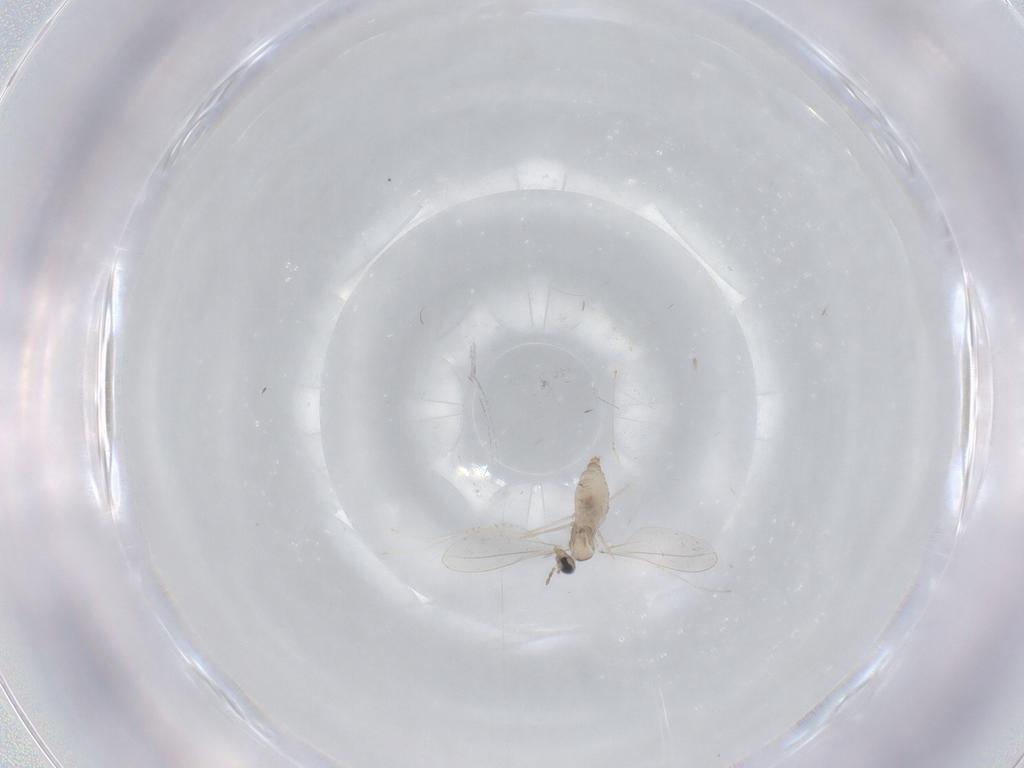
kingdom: Animalia
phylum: Arthropoda
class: Insecta
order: Diptera
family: Cecidomyiidae
